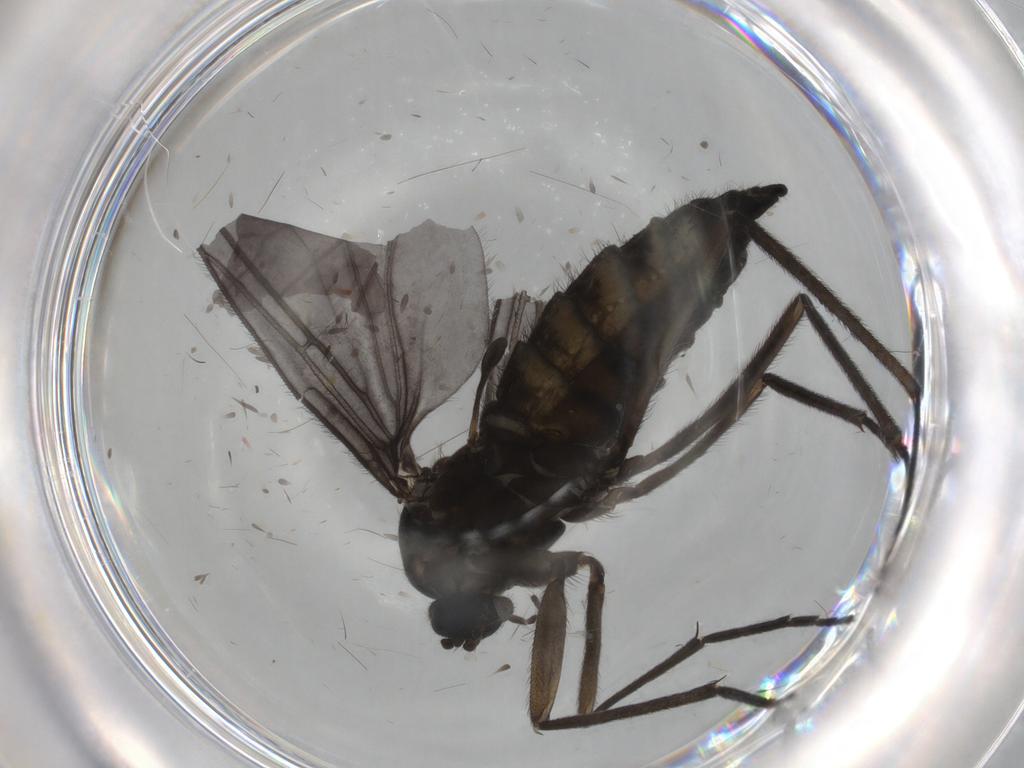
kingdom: Animalia
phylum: Arthropoda
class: Insecta
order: Diptera
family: Sciaridae
